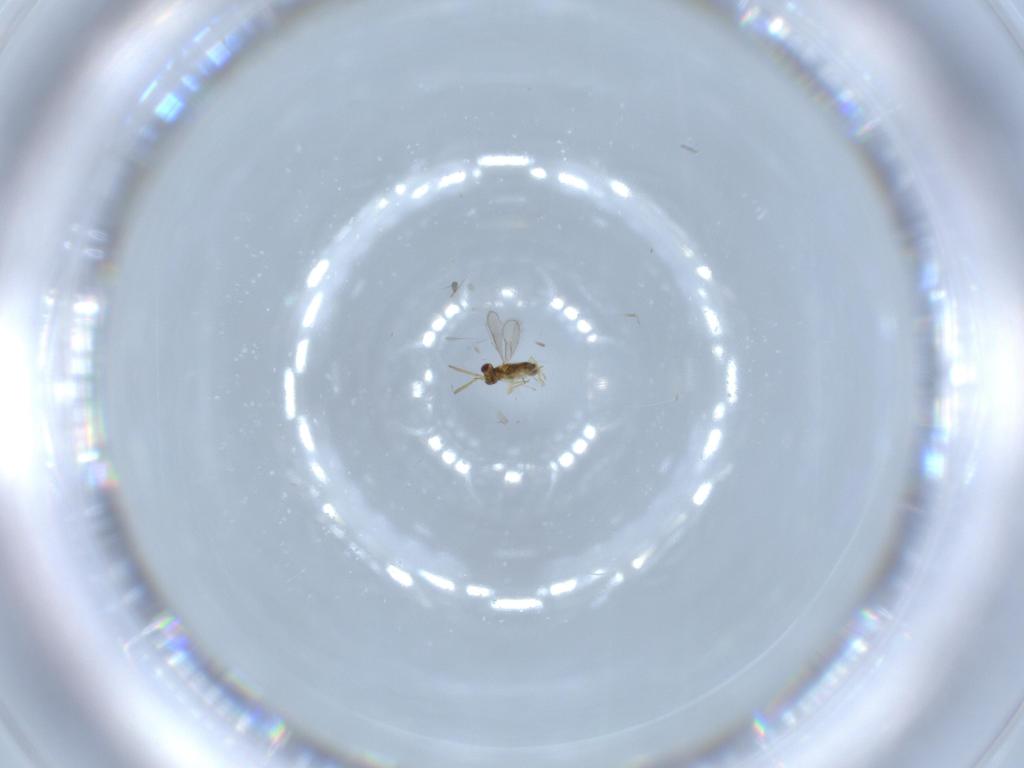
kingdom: Animalia
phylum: Arthropoda
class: Insecta
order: Hymenoptera
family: Aphelinidae
